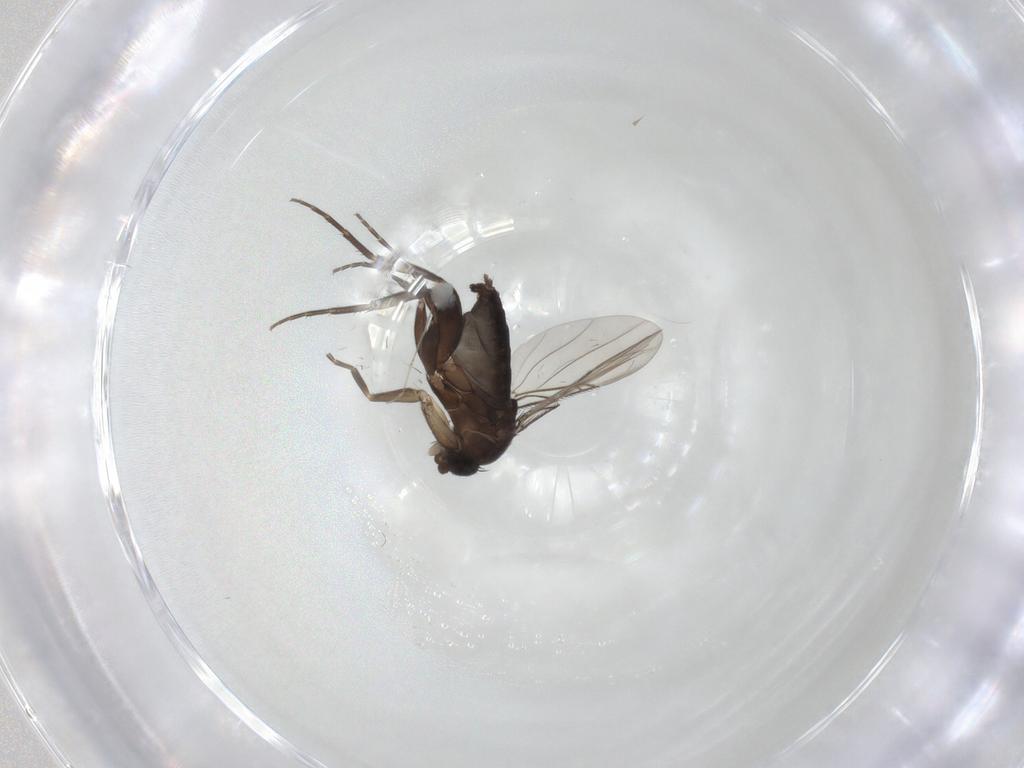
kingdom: Animalia
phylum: Arthropoda
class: Insecta
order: Diptera
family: Phoridae
